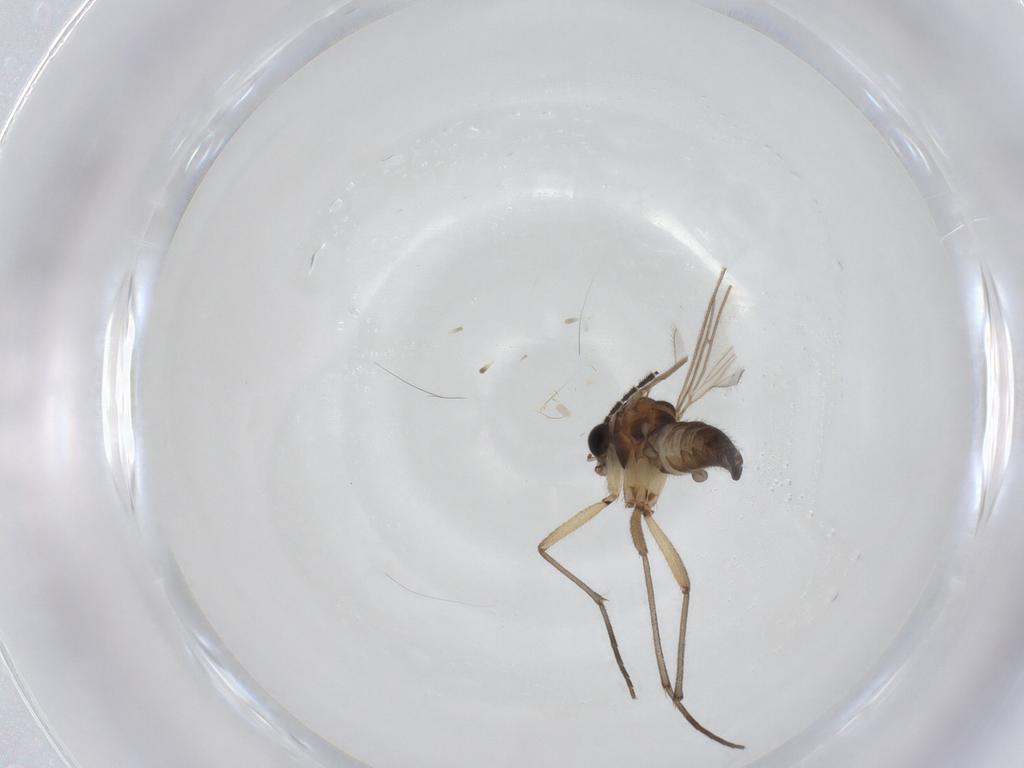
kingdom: Animalia
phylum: Arthropoda
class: Insecta
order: Diptera
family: Sciaridae
